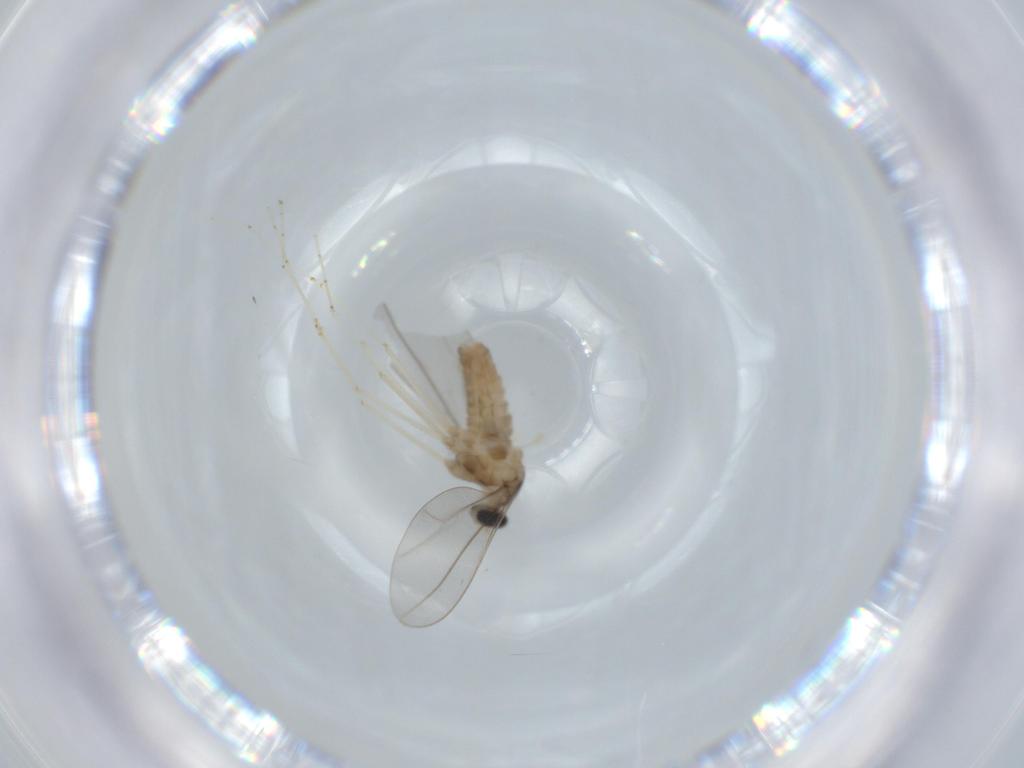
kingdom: Animalia
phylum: Arthropoda
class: Insecta
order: Diptera
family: Cecidomyiidae
